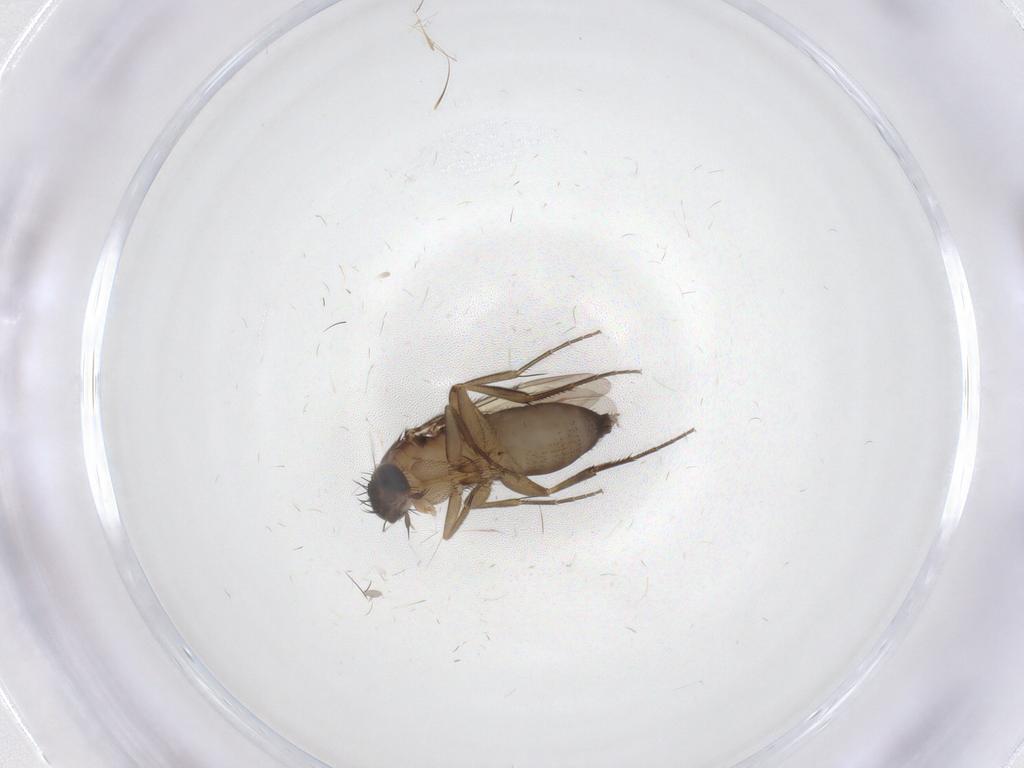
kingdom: Animalia
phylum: Arthropoda
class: Insecta
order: Diptera
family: Phoridae
